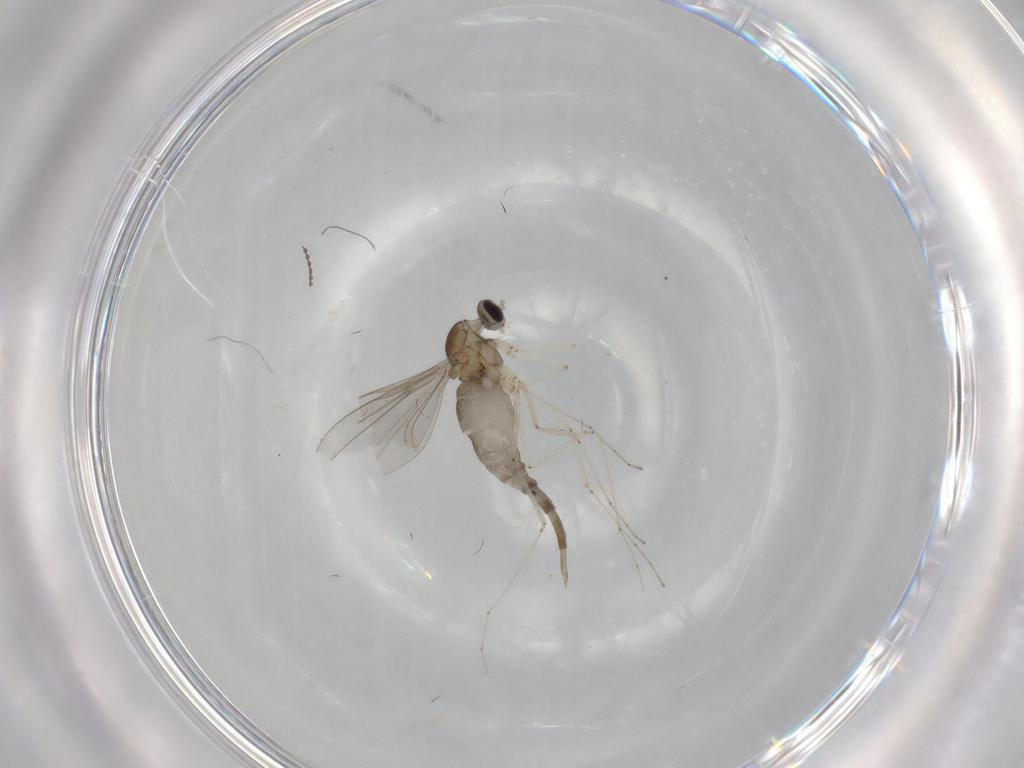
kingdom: Animalia
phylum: Arthropoda
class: Insecta
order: Diptera
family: Cecidomyiidae
